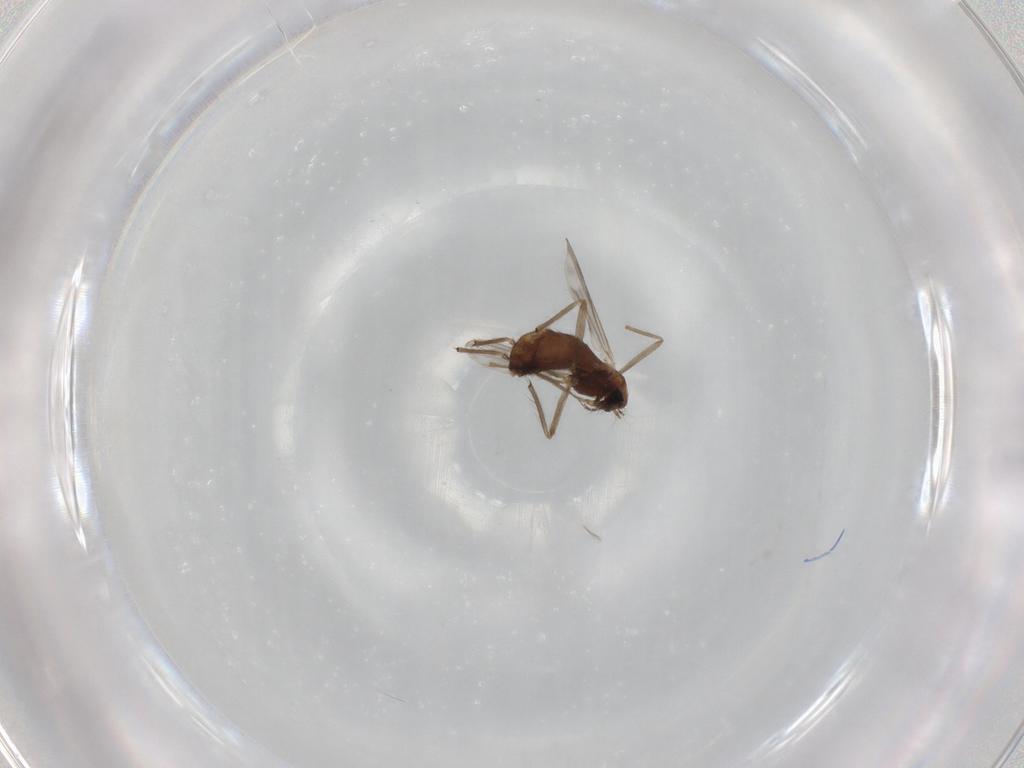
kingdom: Animalia
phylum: Arthropoda
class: Insecta
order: Diptera
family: Chironomidae
